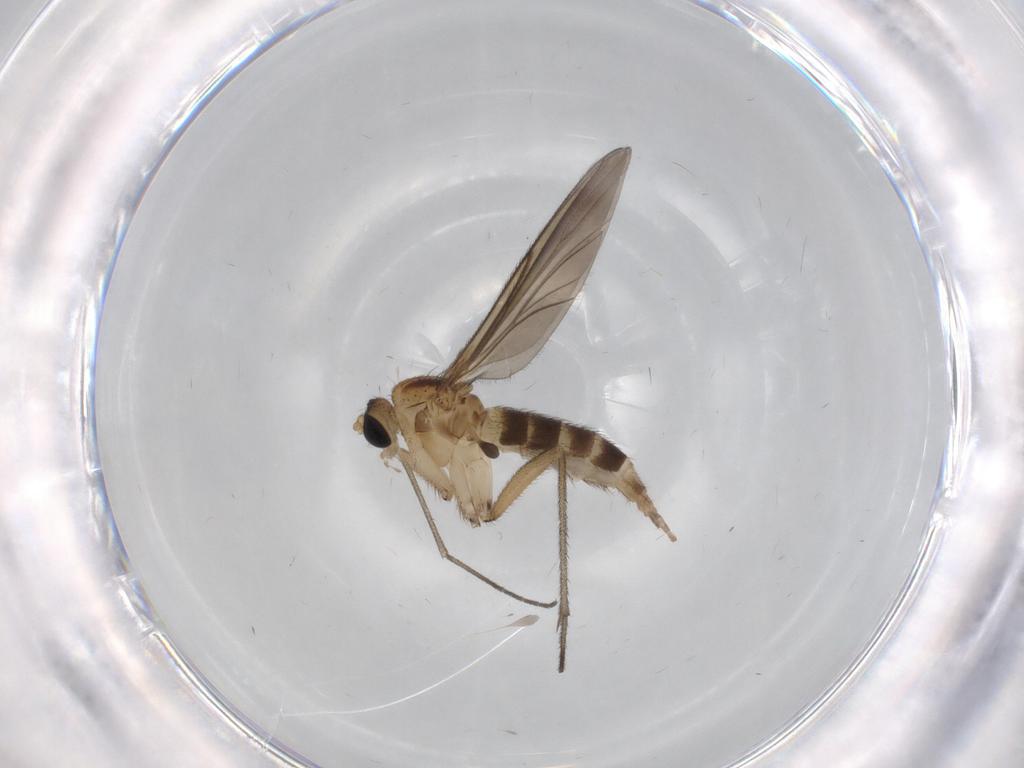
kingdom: Animalia
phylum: Arthropoda
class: Insecta
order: Diptera
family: Sciaridae
